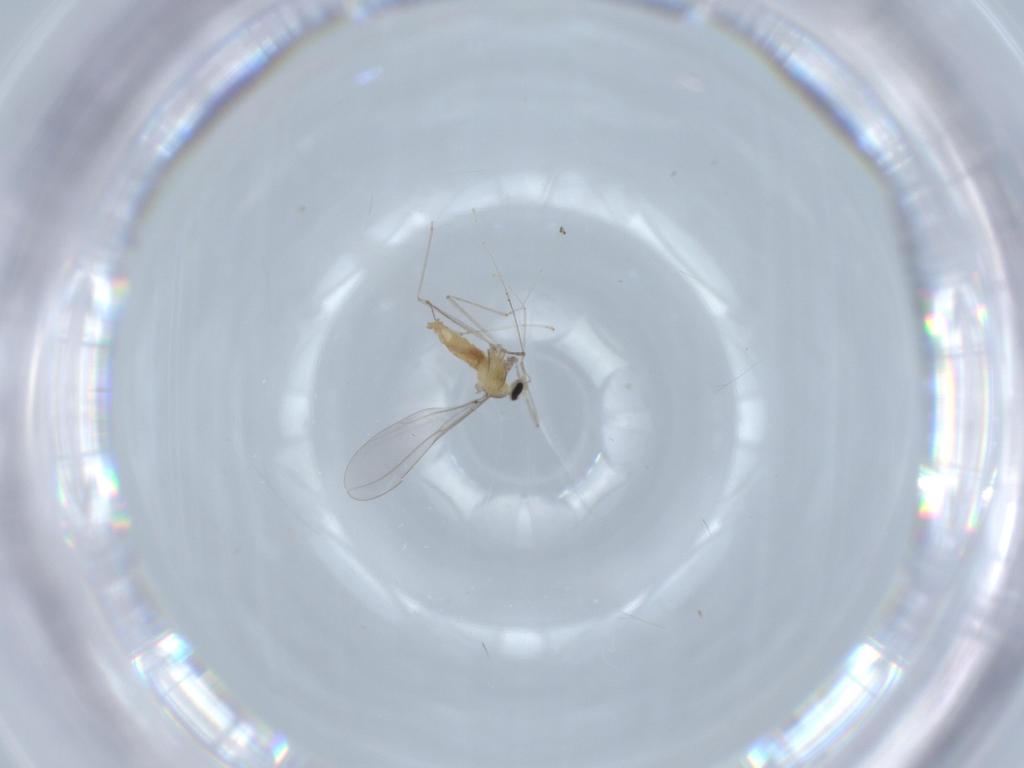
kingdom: Animalia
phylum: Arthropoda
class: Insecta
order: Diptera
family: Cecidomyiidae
